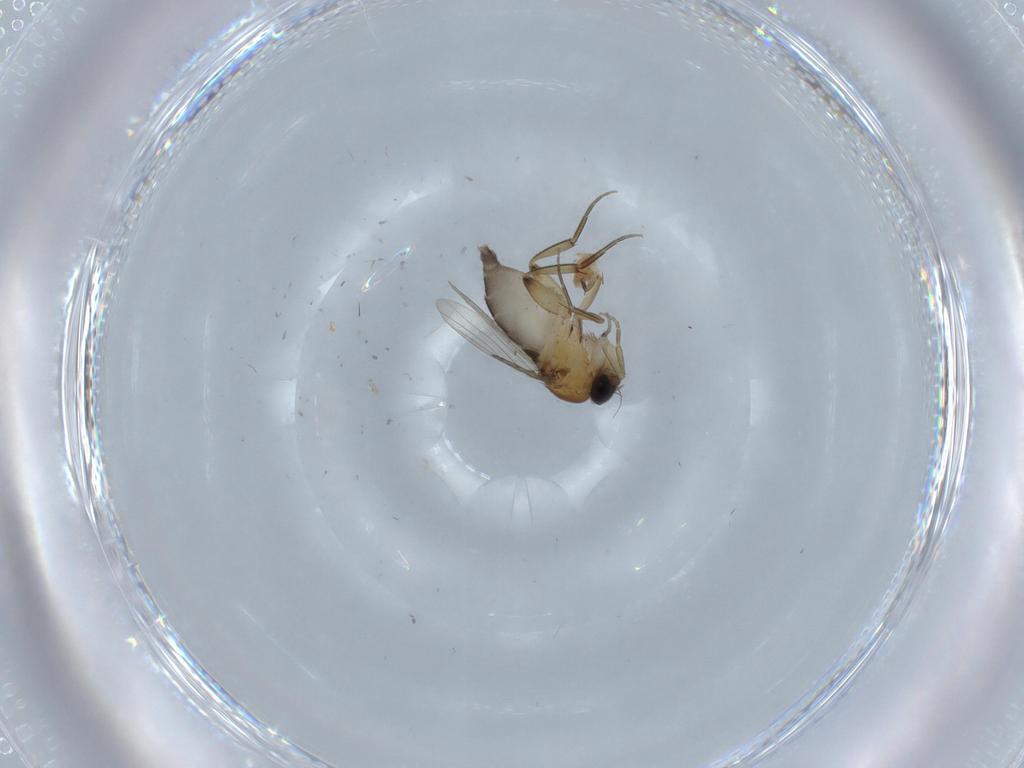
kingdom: Animalia
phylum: Arthropoda
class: Insecta
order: Diptera
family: Phoridae
